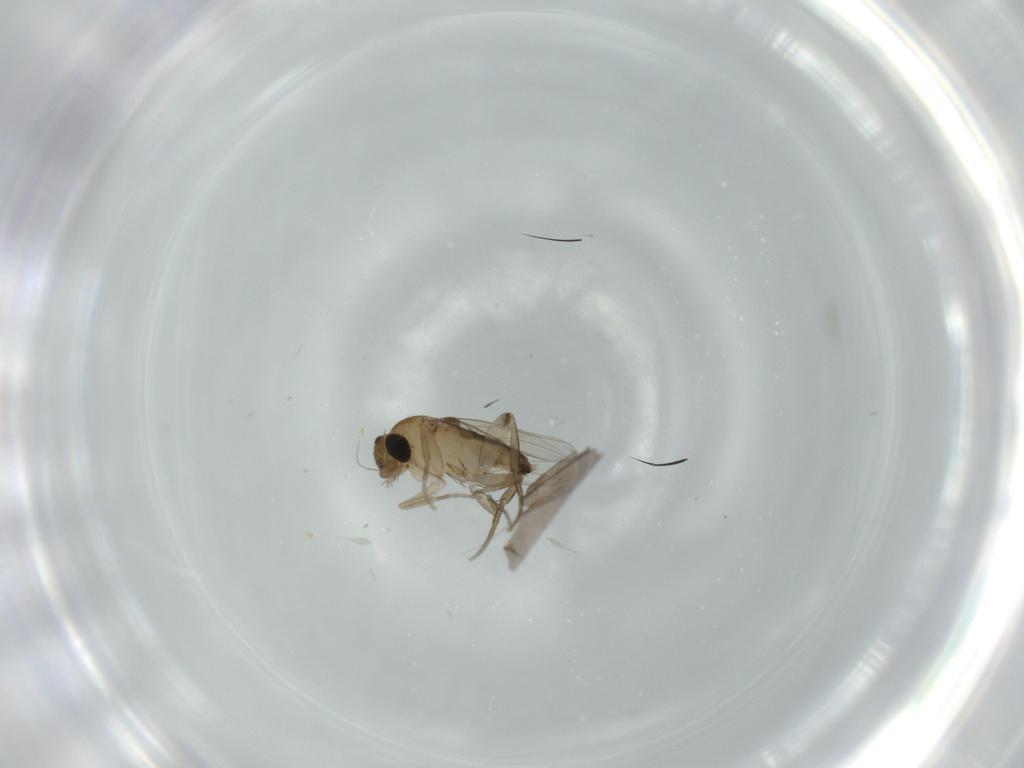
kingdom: Animalia
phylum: Arthropoda
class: Insecta
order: Diptera
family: Phoridae
